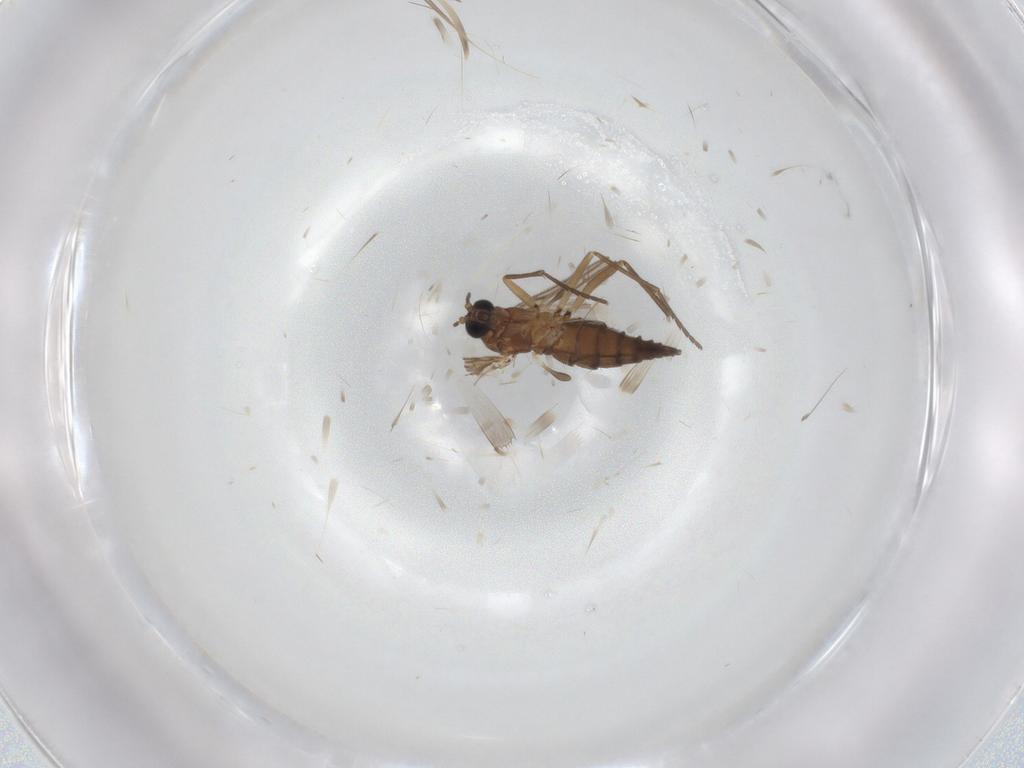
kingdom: Animalia
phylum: Arthropoda
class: Insecta
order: Diptera
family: Sciaridae
